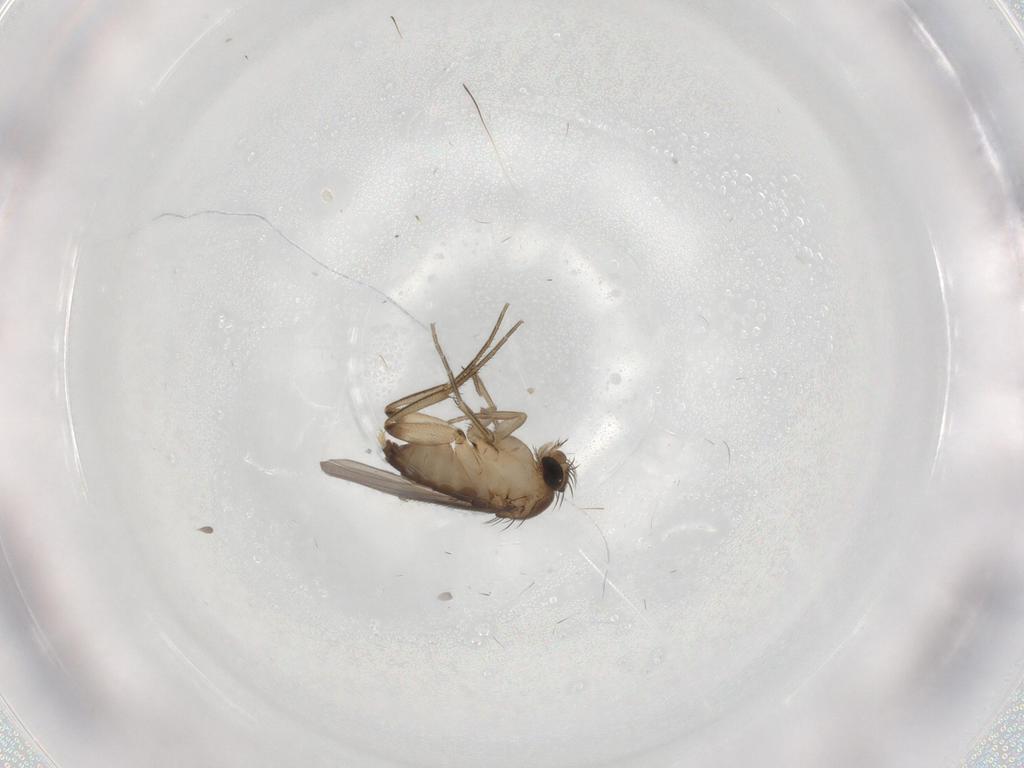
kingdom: Animalia
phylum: Arthropoda
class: Insecta
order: Diptera
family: Phoridae
